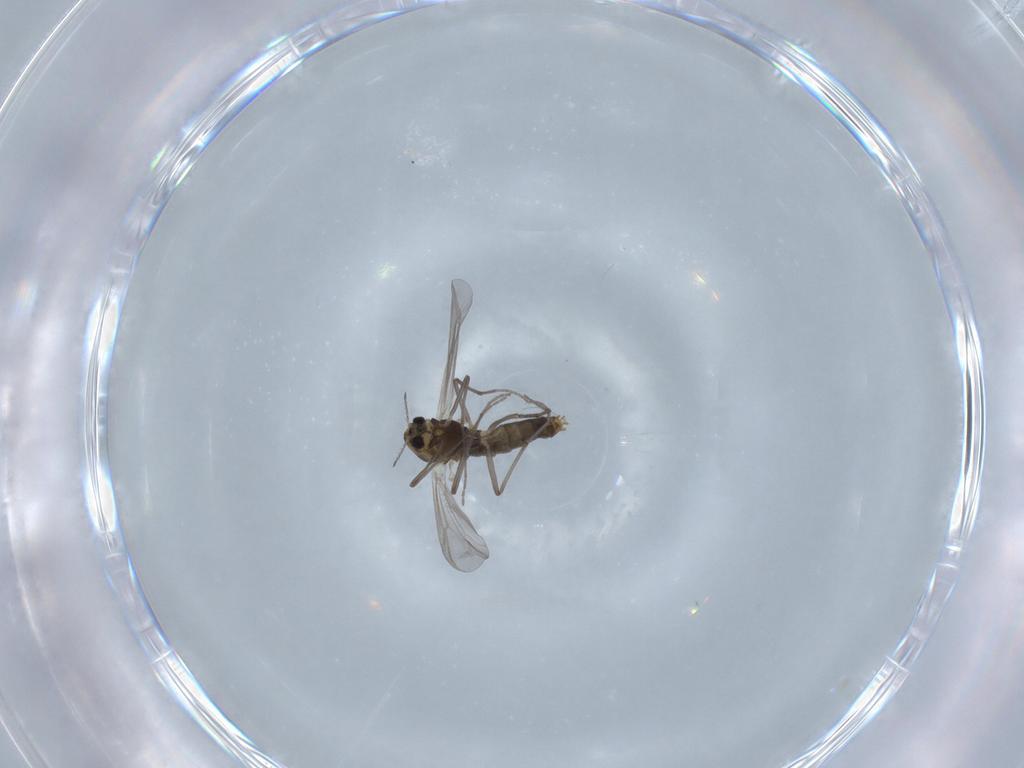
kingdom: Animalia
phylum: Arthropoda
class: Insecta
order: Diptera
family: Chironomidae
